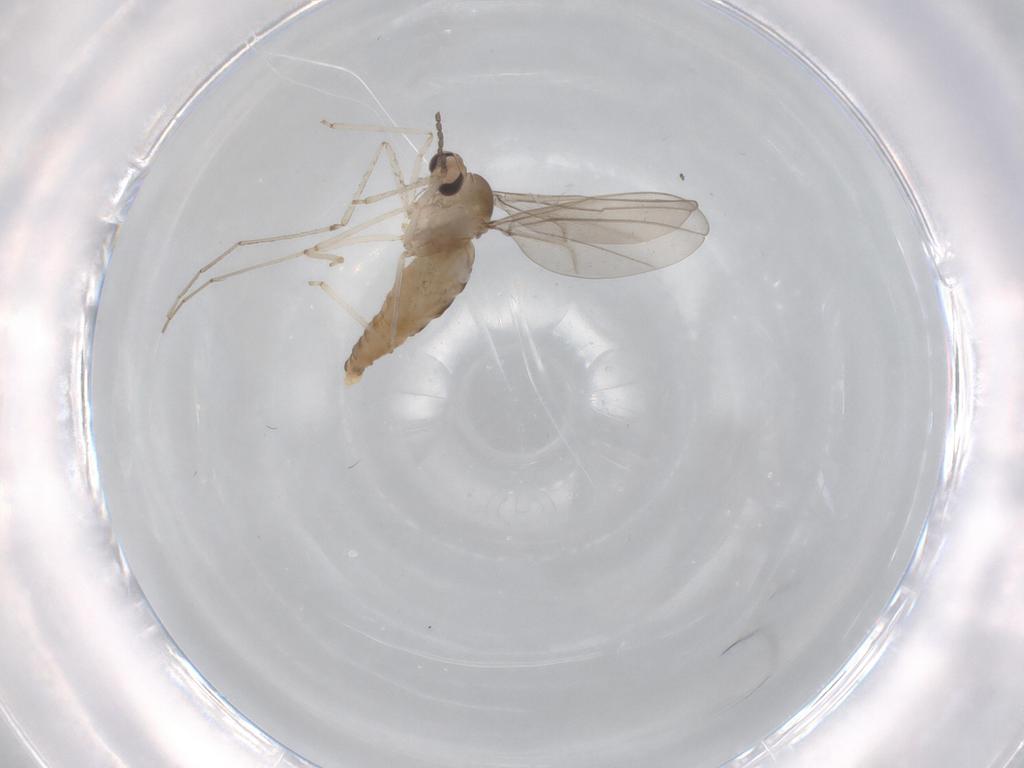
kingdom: Animalia
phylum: Arthropoda
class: Insecta
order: Diptera
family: Cecidomyiidae
